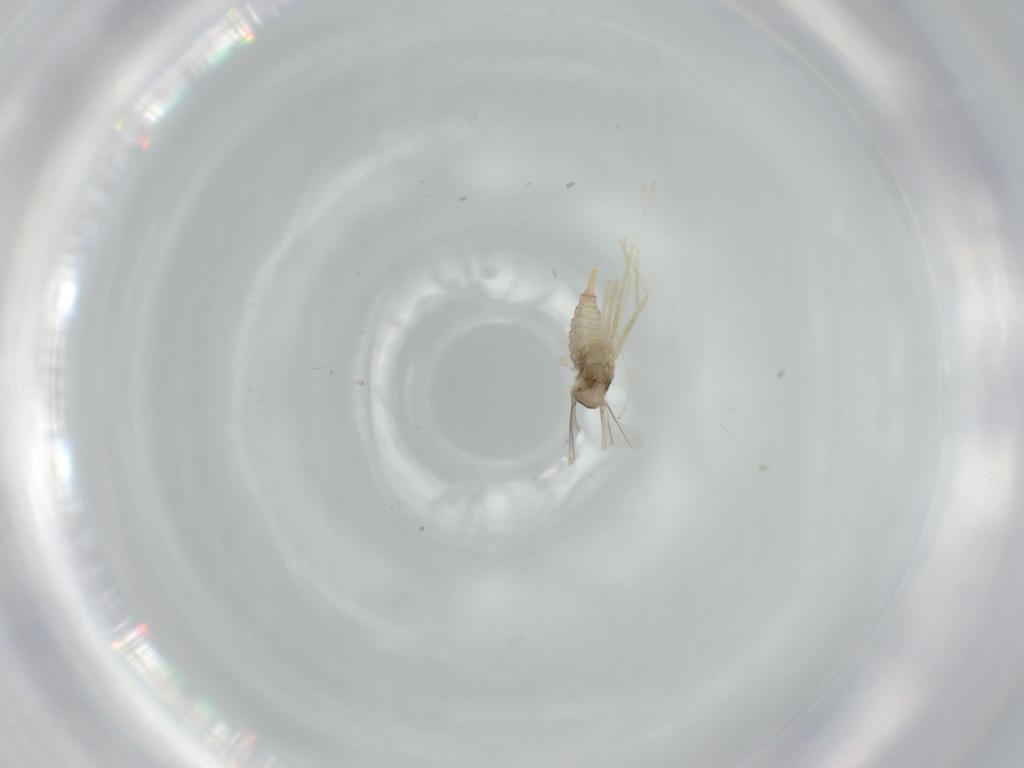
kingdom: Animalia
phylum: Arthropoda
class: Insecta
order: Diptera
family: Cecidomyiidae
